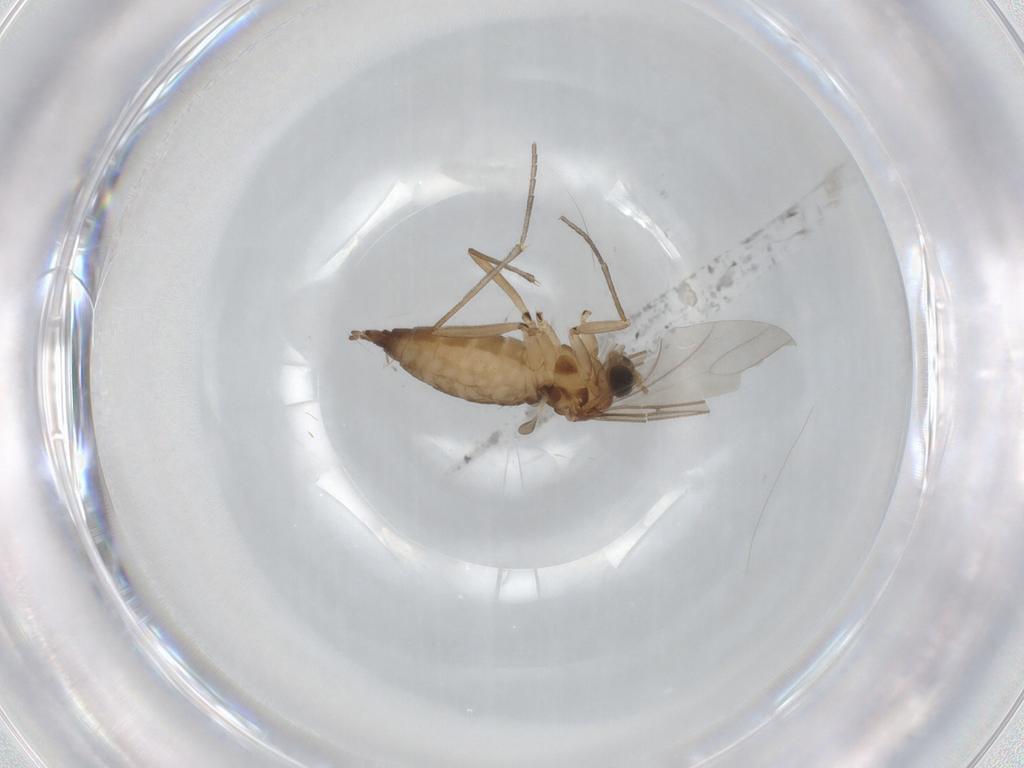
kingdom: Animalia
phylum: Arthropoda
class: Insecta
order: Diptera
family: Sciaridae
